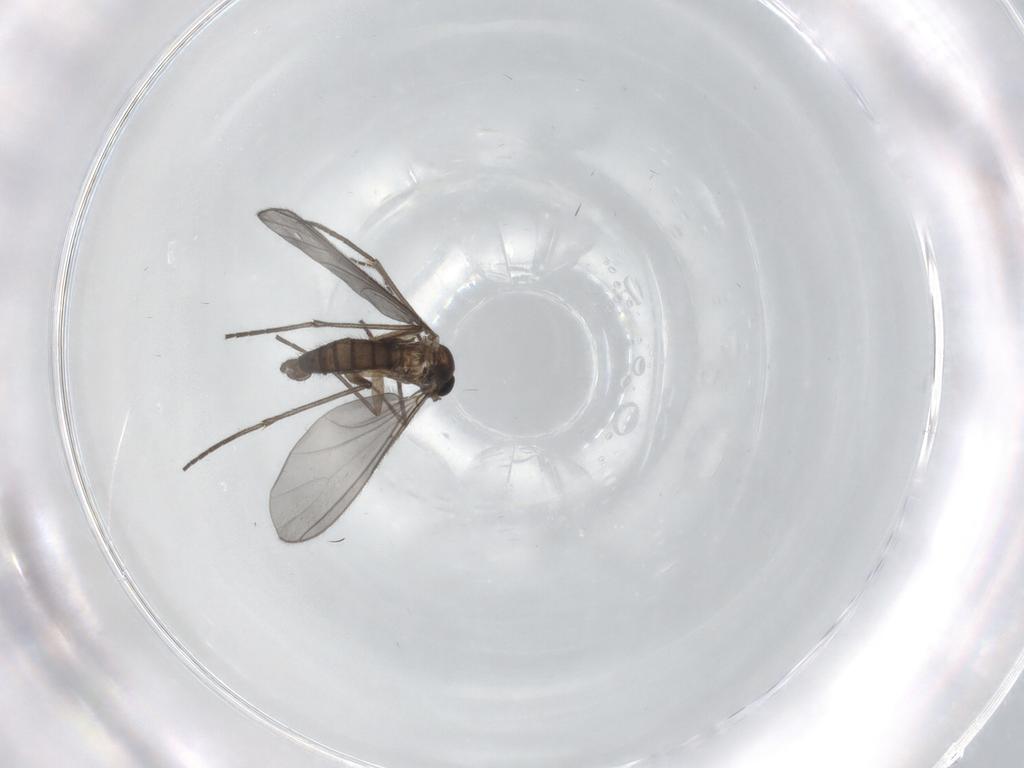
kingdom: Animalia
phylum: Arthropoda
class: Insecta
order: Diptera
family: Sciaridae
